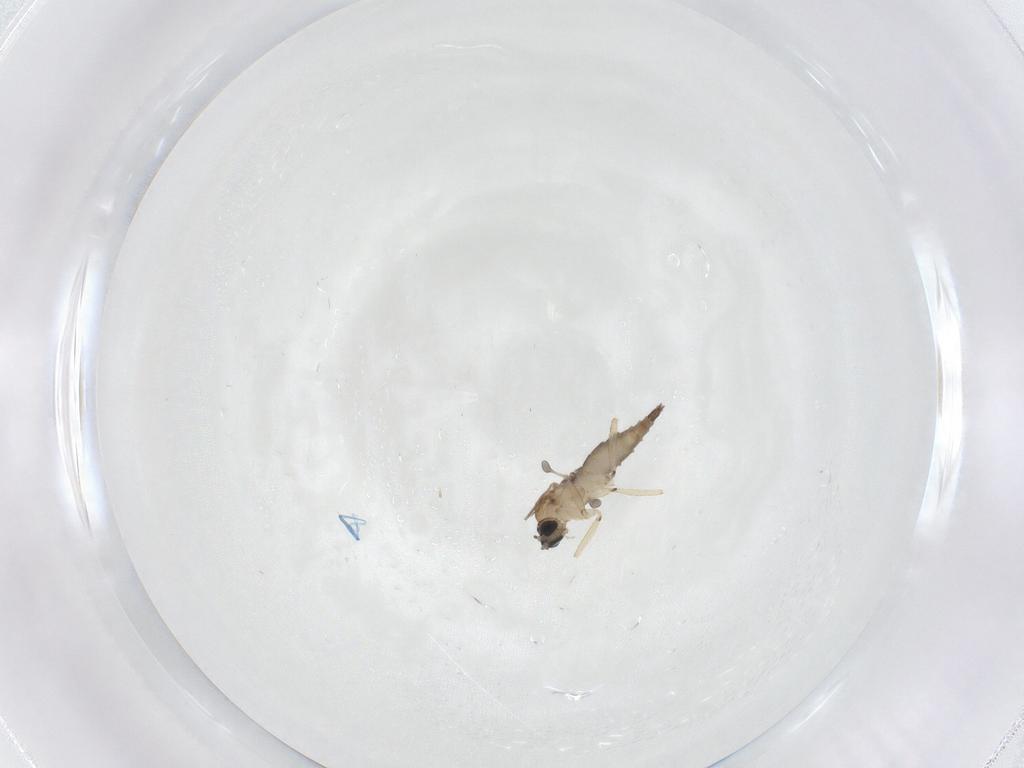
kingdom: Animalia
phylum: Arthropoda
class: Insecta
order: Diptera
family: Sciaridae
